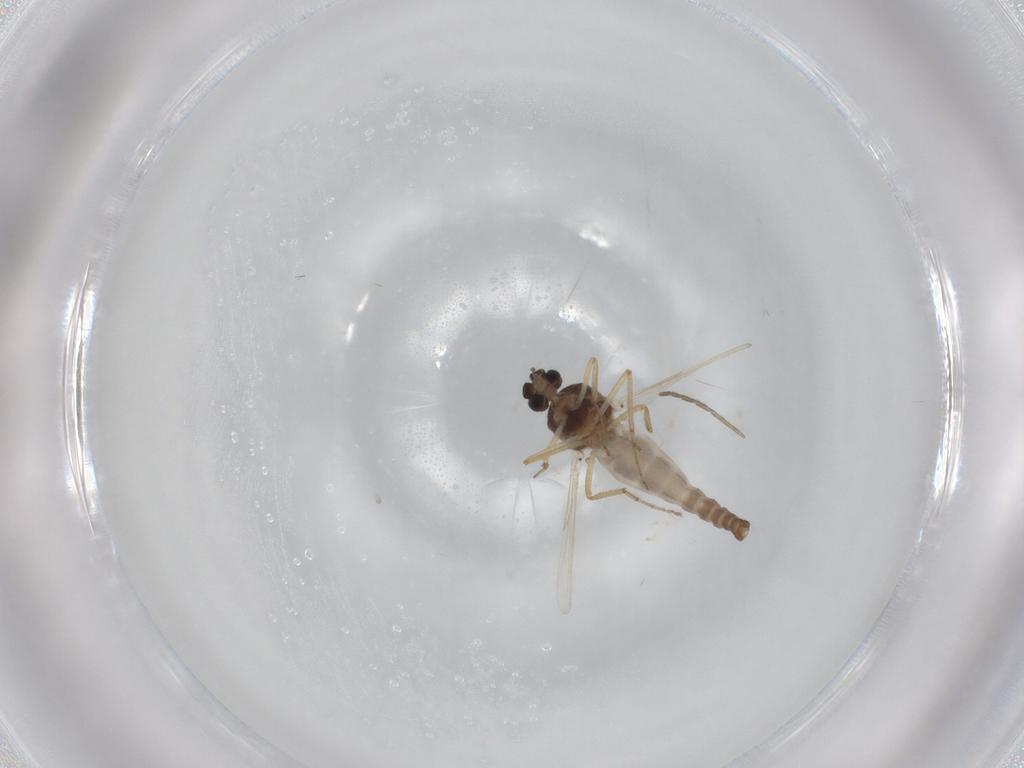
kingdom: Animalia
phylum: Arthropoda
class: Insecta
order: Diptera
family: Ceratopogonidae
